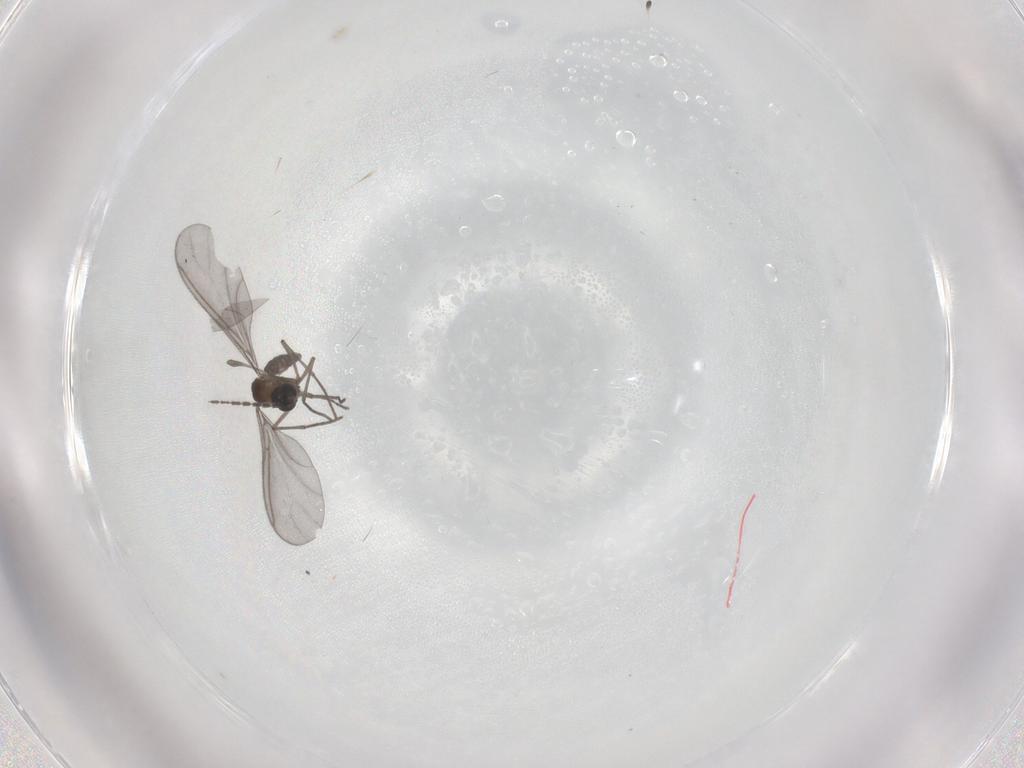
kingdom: Animalia
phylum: Arthropoda
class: Insecta
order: Diptera
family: Sciaridae
